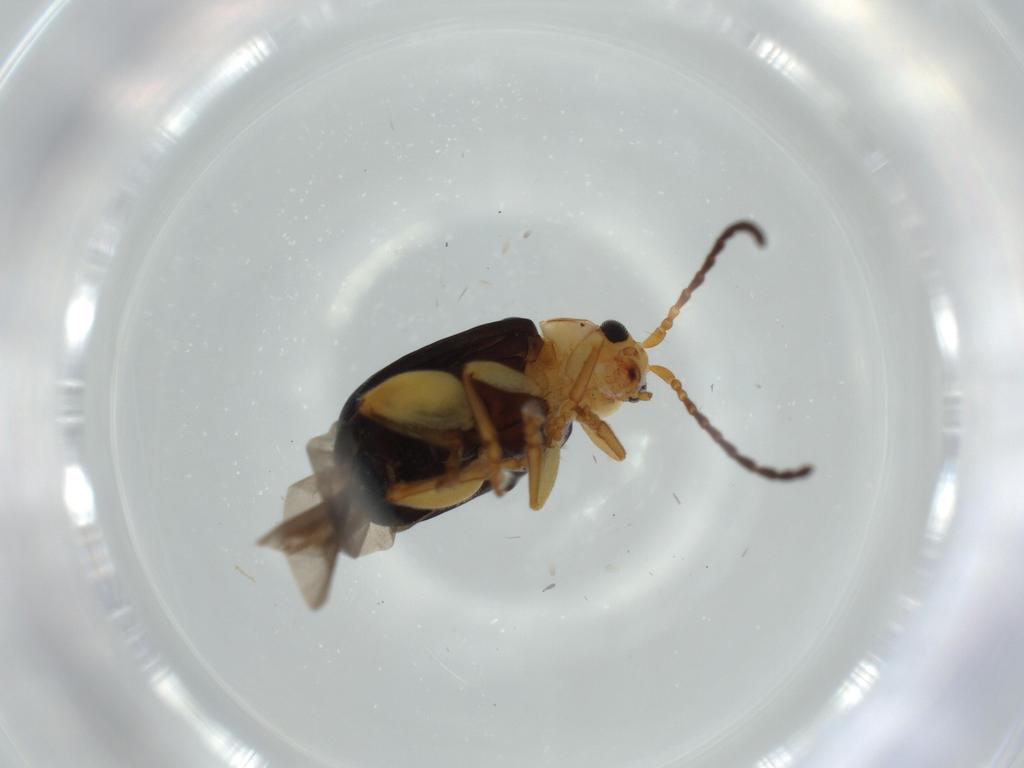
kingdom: Animalia
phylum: Arthropoda
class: Insecta
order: Coleoptera
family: Chrysomelidae
